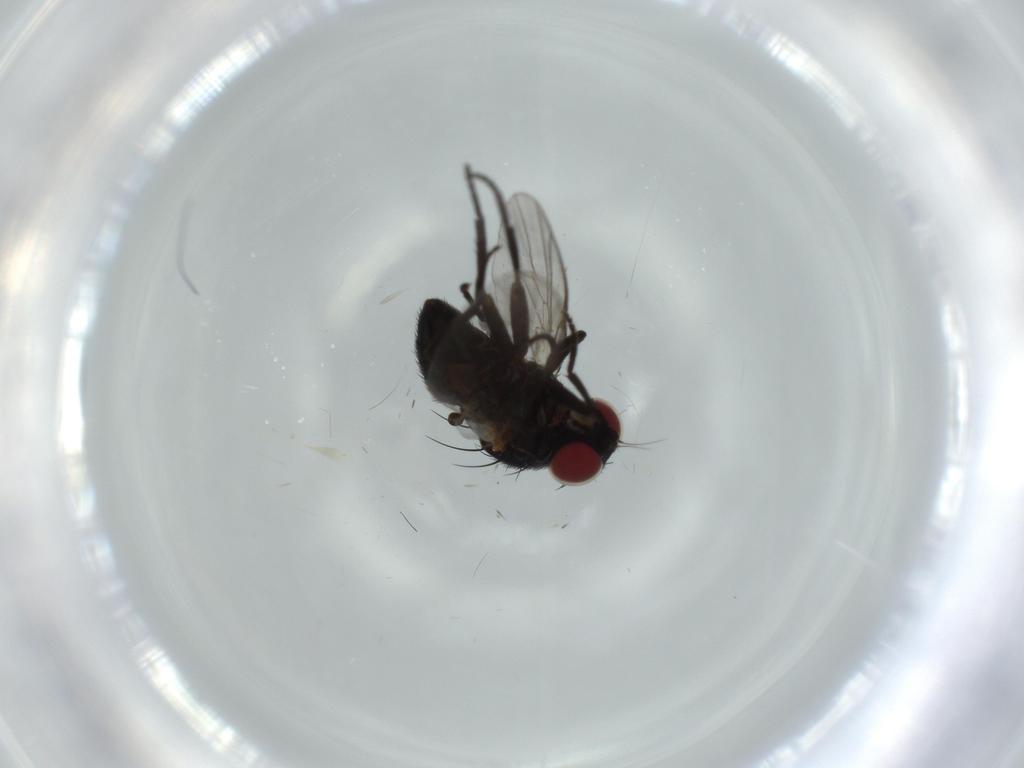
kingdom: Animalia
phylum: Arthropoda
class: Insecta
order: Diptera
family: Agromyzidae
